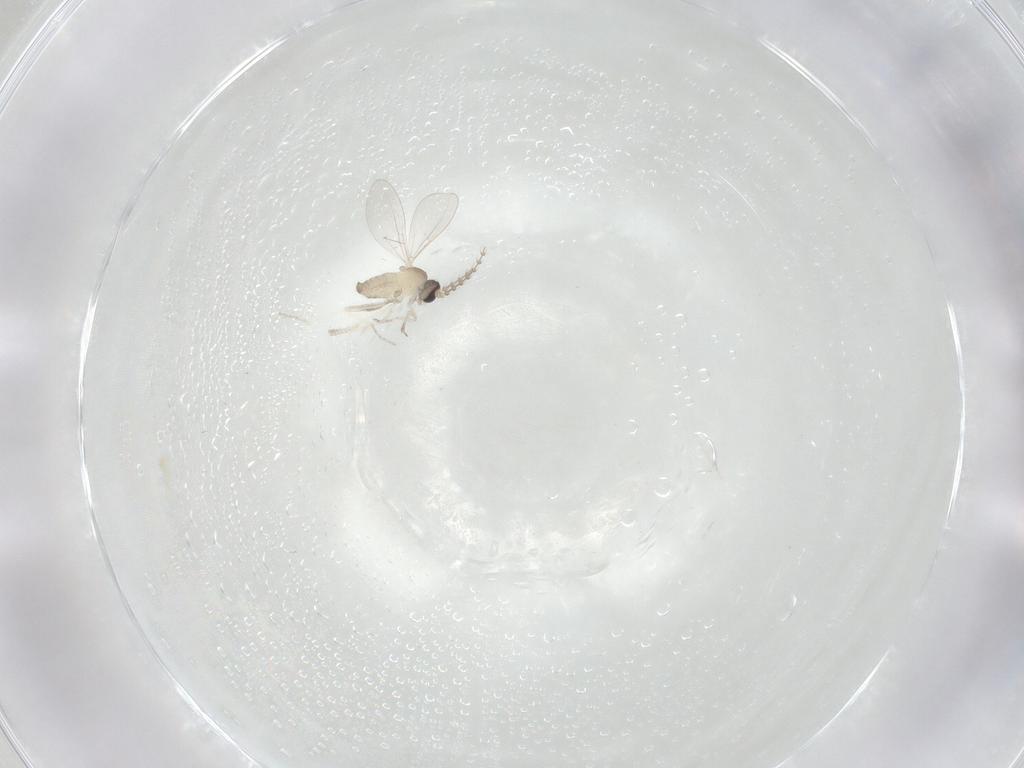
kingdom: Animalia
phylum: Arthropoda
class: Insecta
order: Diptera
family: Cecidomyiidae
